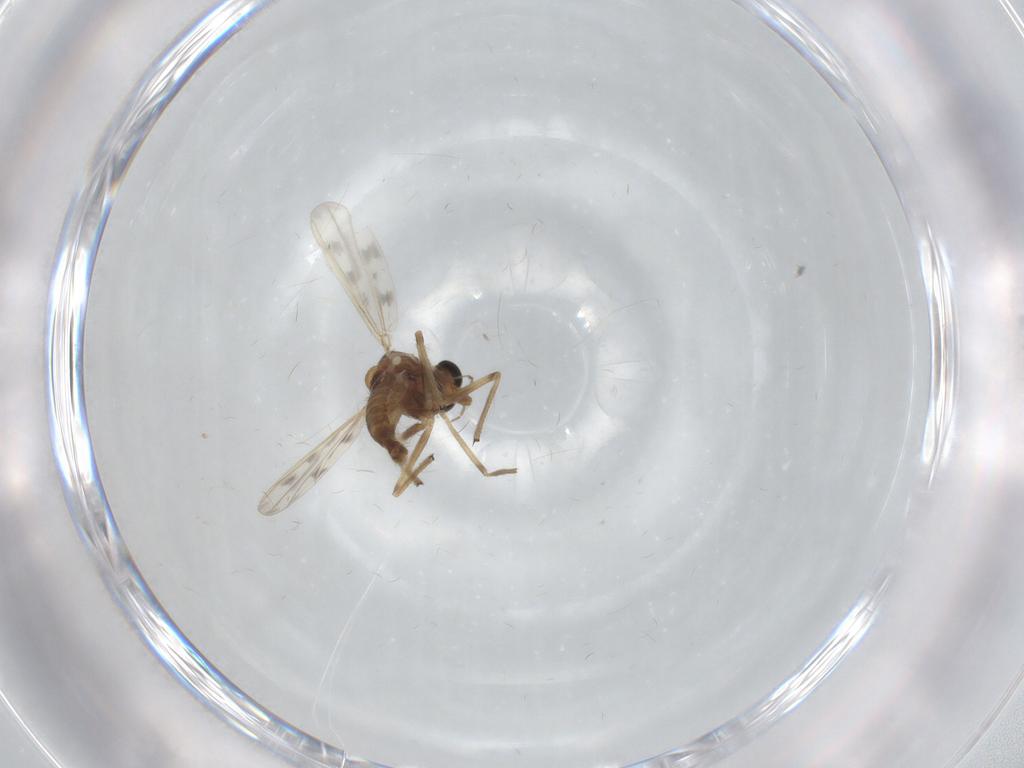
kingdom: Animalia
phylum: Arthropoda
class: Insecta
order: Diptera
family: Chironomidae
